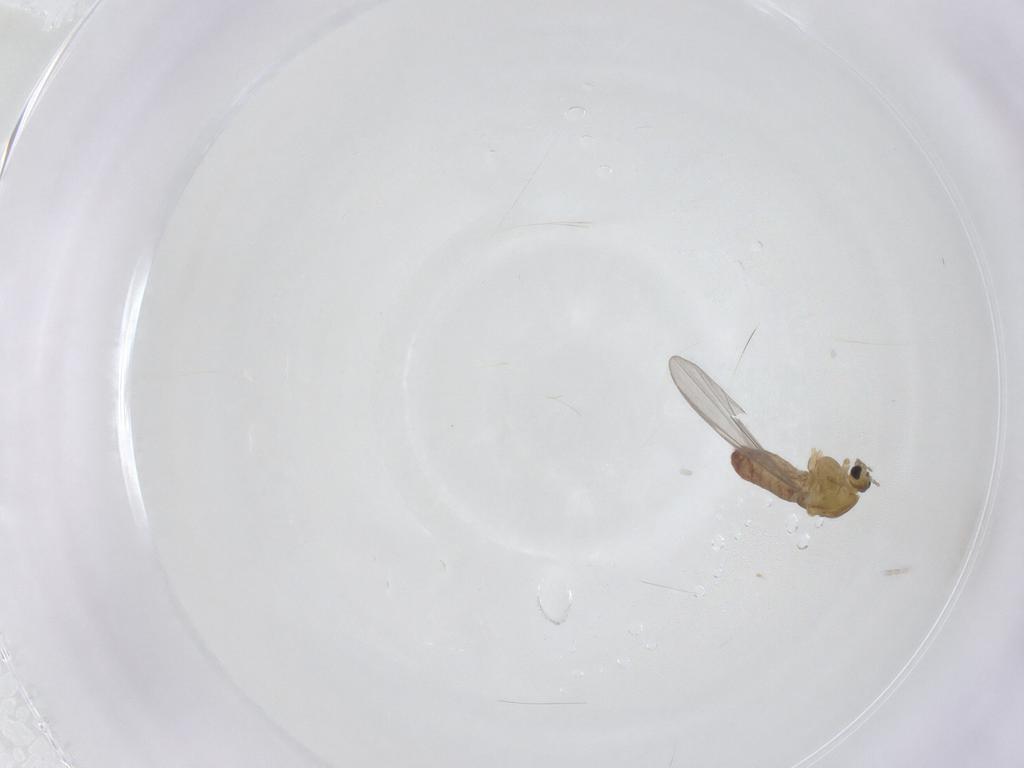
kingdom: Animalia
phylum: Arthropoda
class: Insecta
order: Diptera
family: Chironomidae
